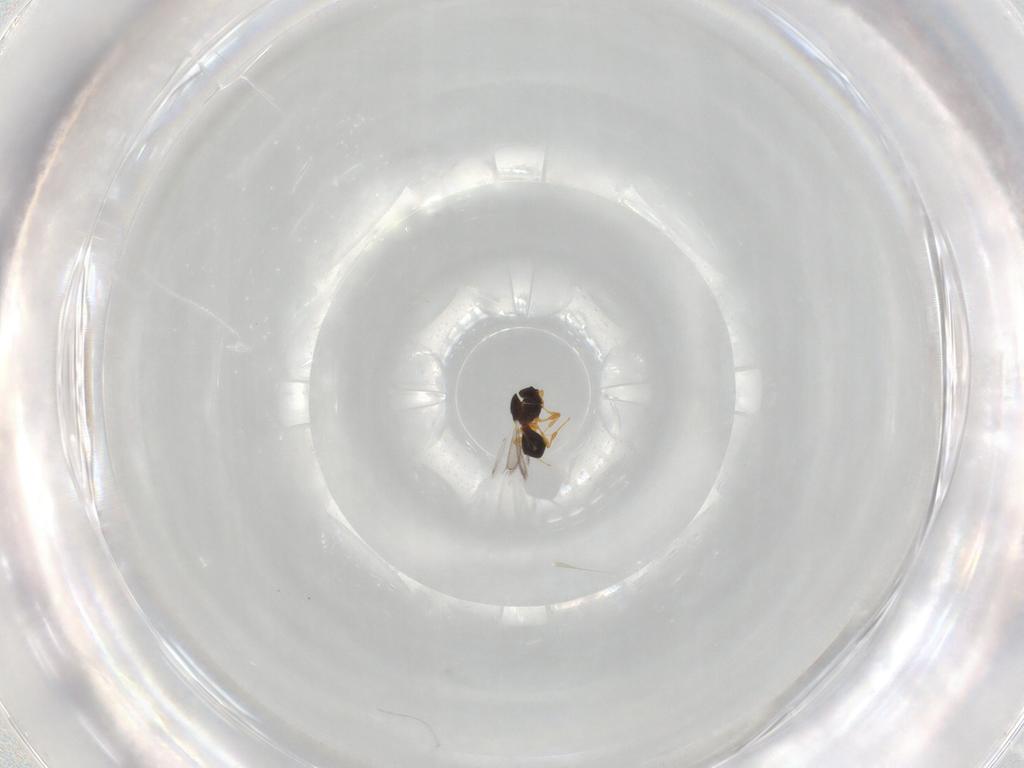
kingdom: Animalia
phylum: Arthropoda
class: Insecta
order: Hymenoptera
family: Platygastridae
